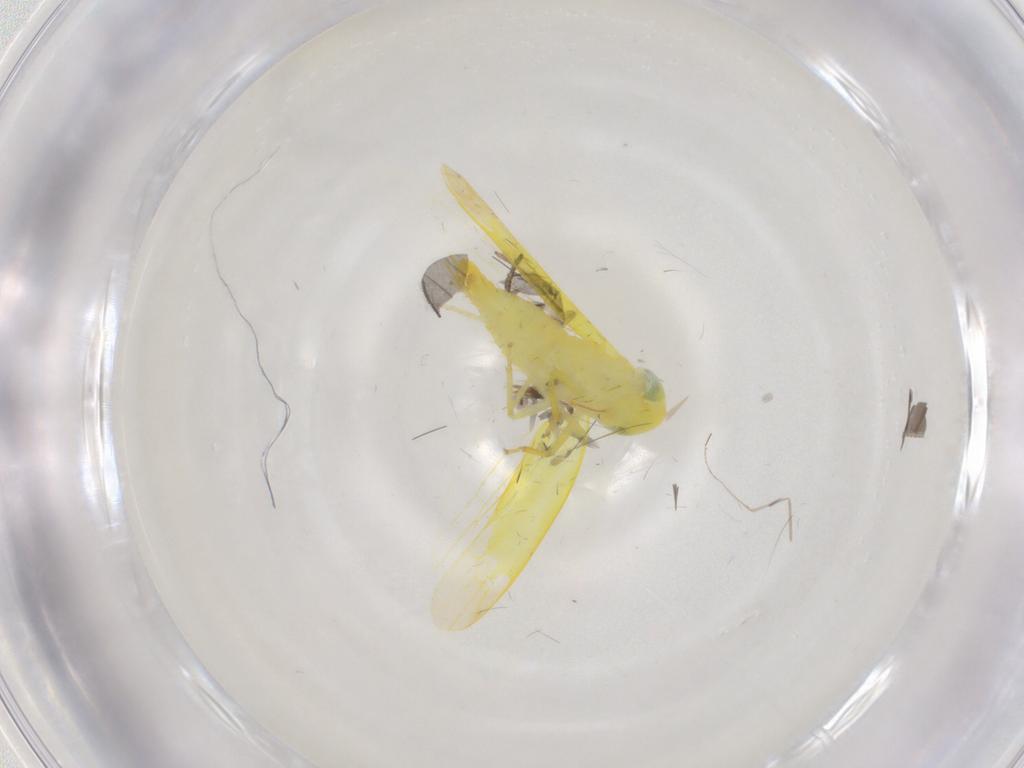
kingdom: Animalia
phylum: Arthropoda
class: Insecta
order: Hemiptera
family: Cicadellidae
